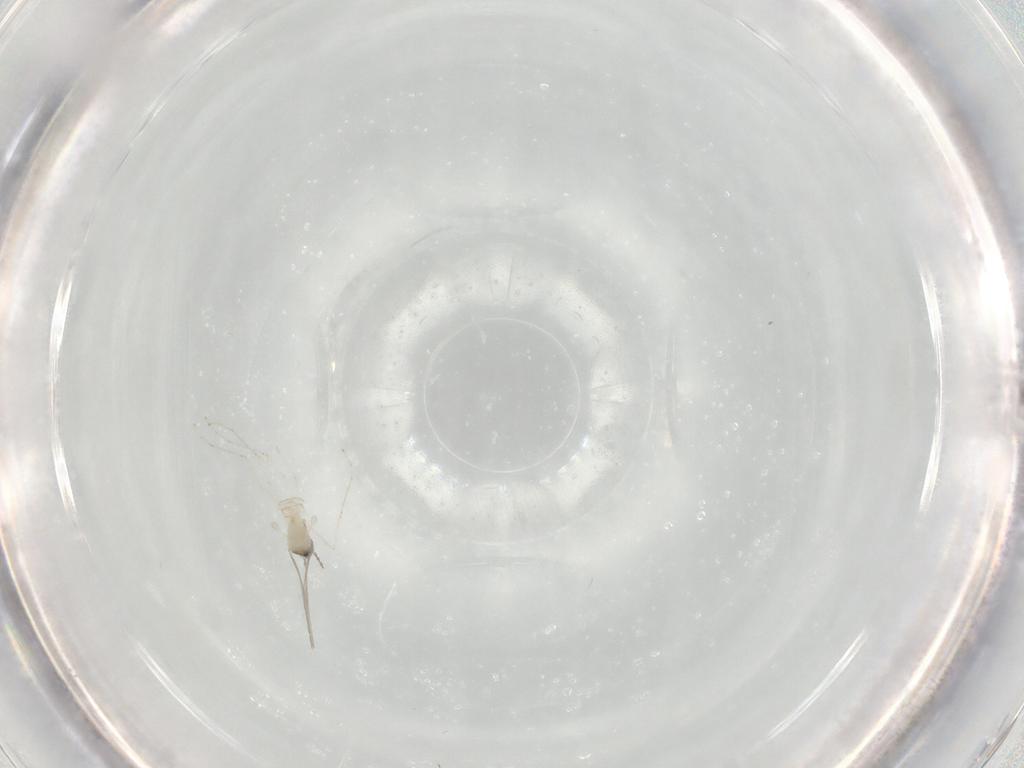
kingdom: Animalia
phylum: Arthropoda
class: Insecta
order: Diptera
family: Cecidomyiidae
